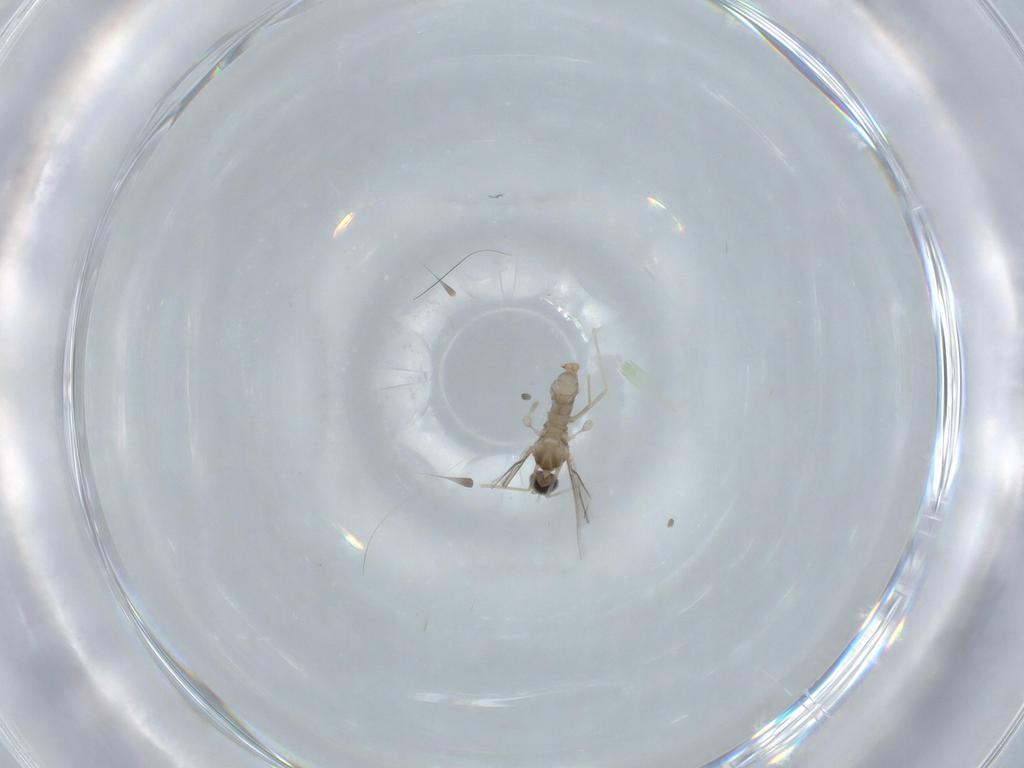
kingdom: Animalia
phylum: Arthropoda
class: Insecta
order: Diptera
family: Cecidomyiidae
